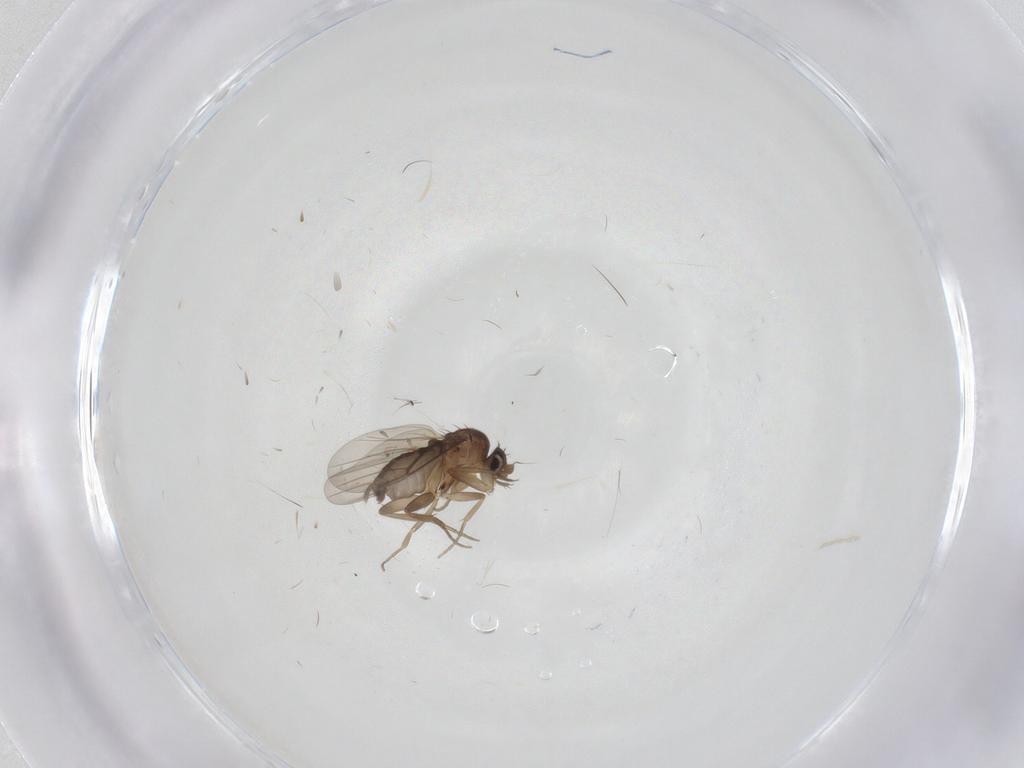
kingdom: Animalia
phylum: Arthropoda
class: Insecta
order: Diptera
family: Phoridae
